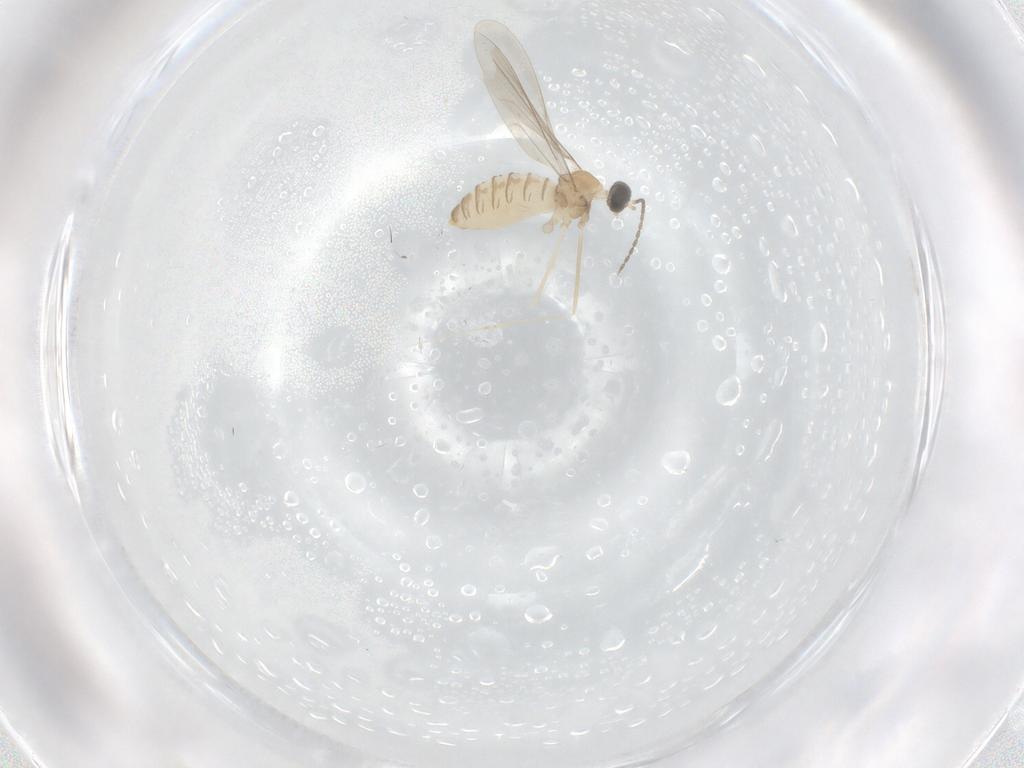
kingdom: Animalia
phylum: Arthropoda
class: Insecta
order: Diptera
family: Cecidomyiidae
